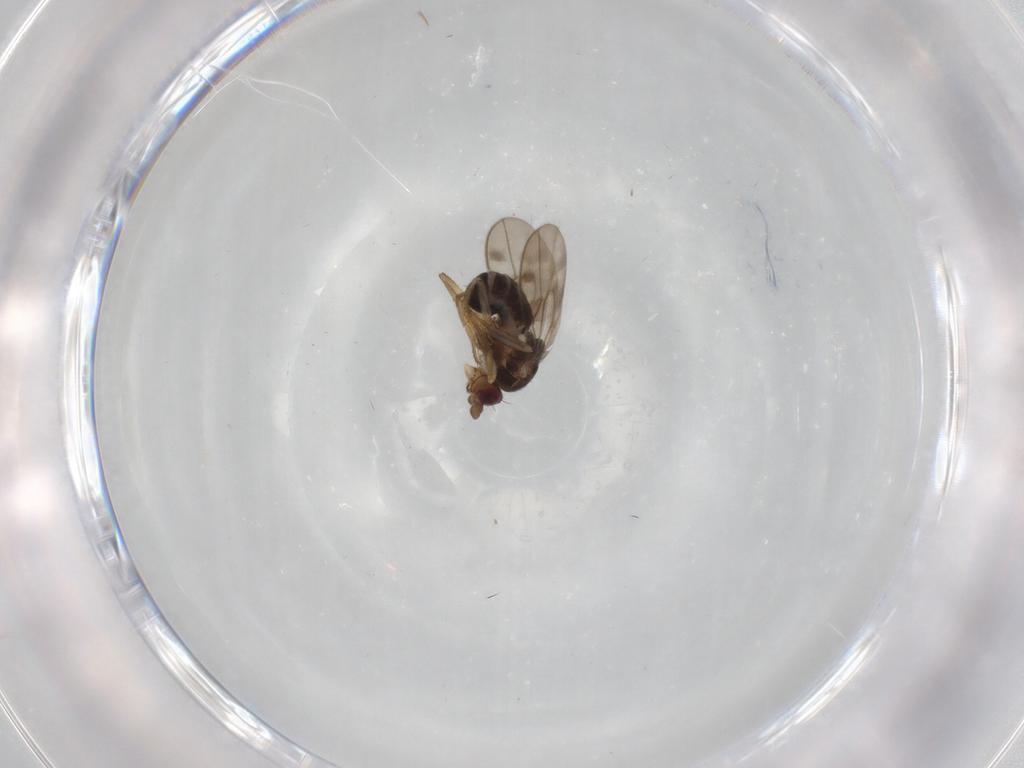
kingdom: Animalia
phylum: Arthropoda
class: Insecta
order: Diptera
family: Sphaeroceridae
